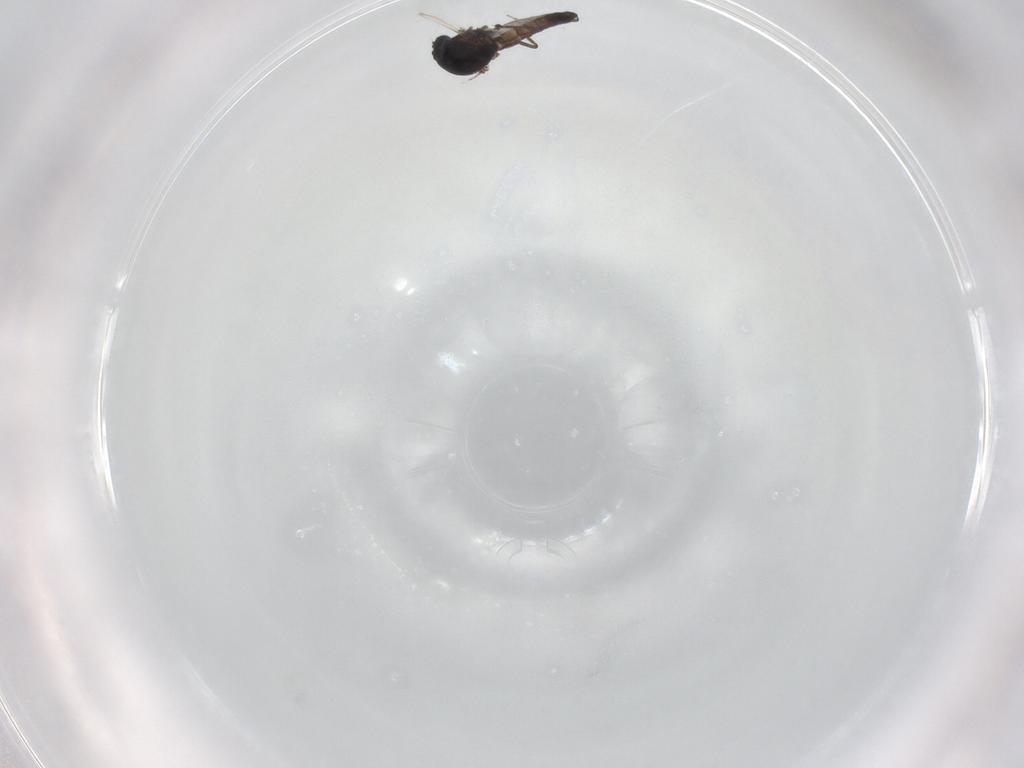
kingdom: Animalia
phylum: Arthropoda
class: Insecta
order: Diptera
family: Ceratopogonidae
